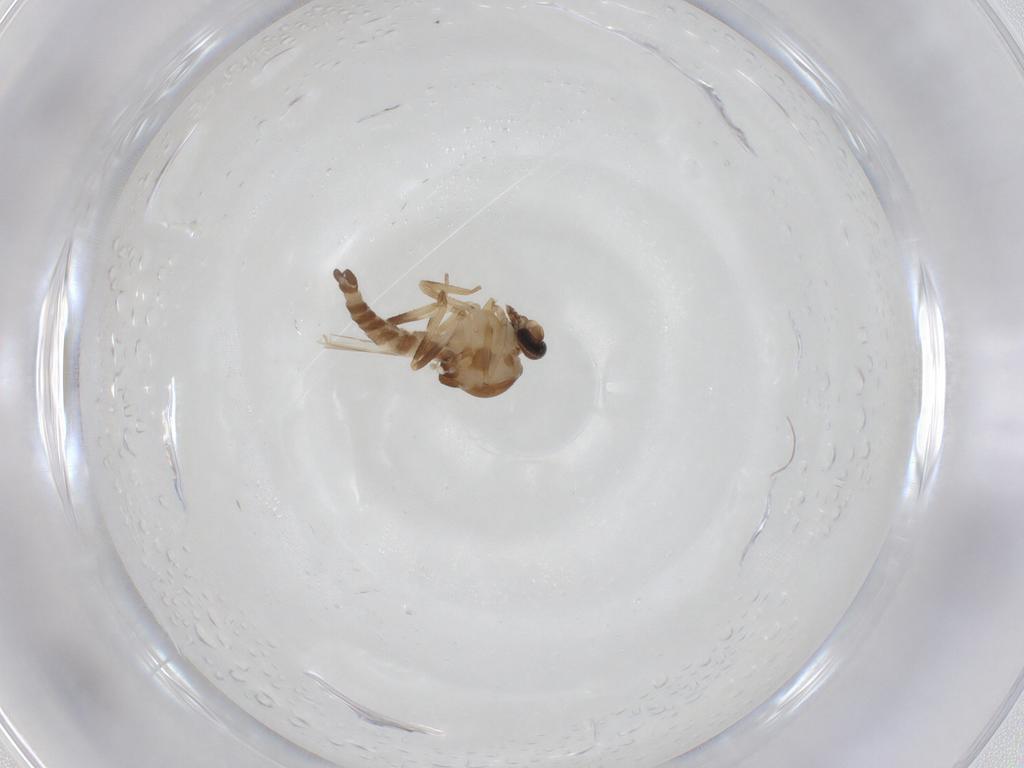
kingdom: Animalia
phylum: Arthropoda
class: Insecta
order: Diptera
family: Ceratopogonidae
